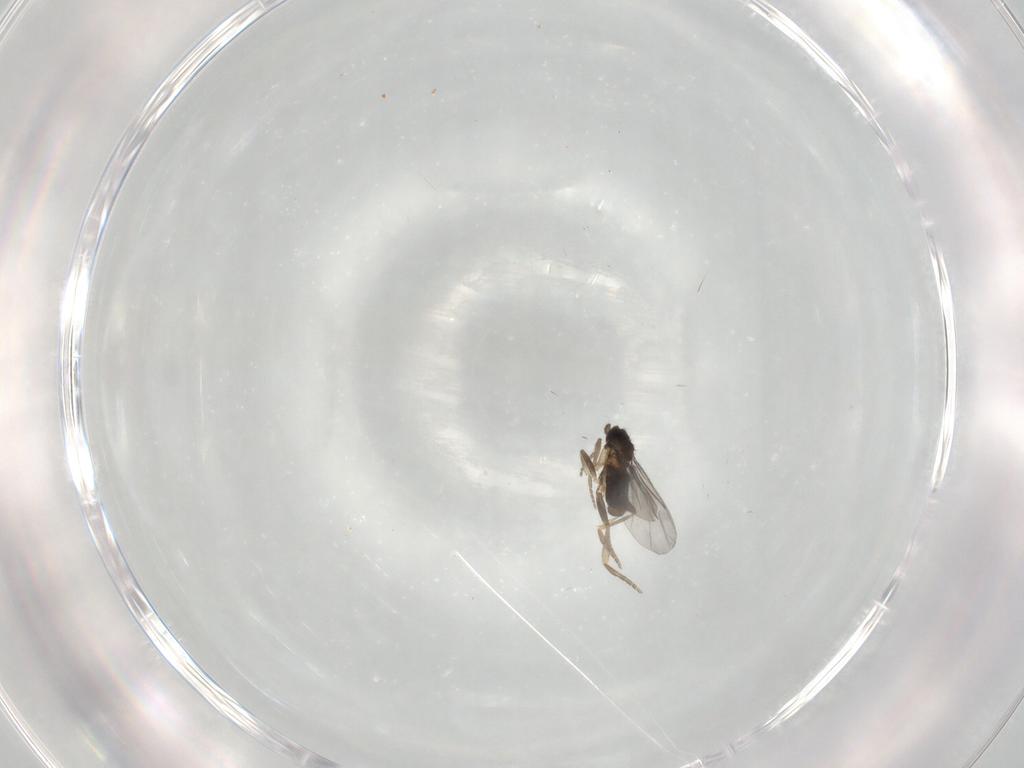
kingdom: Animalia
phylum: Arthropoda
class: Insecta
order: Diptera
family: Phoridae
